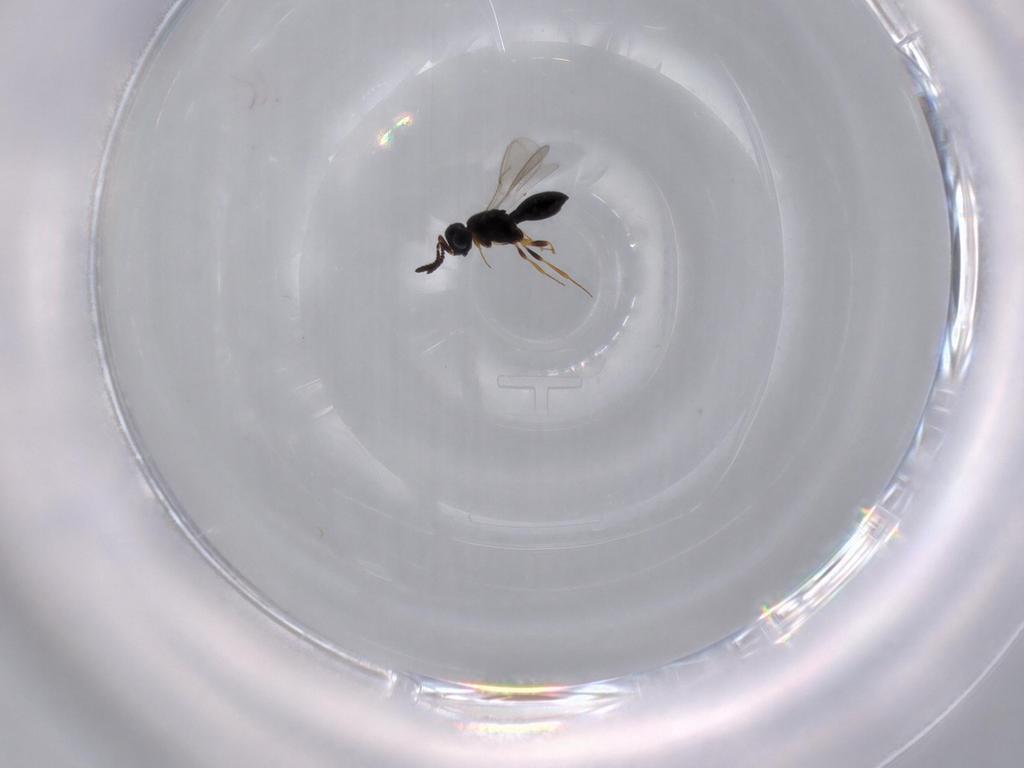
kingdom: Animalia
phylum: Arthropoda
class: Insecta
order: Hymenoptera
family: Scelionidae
